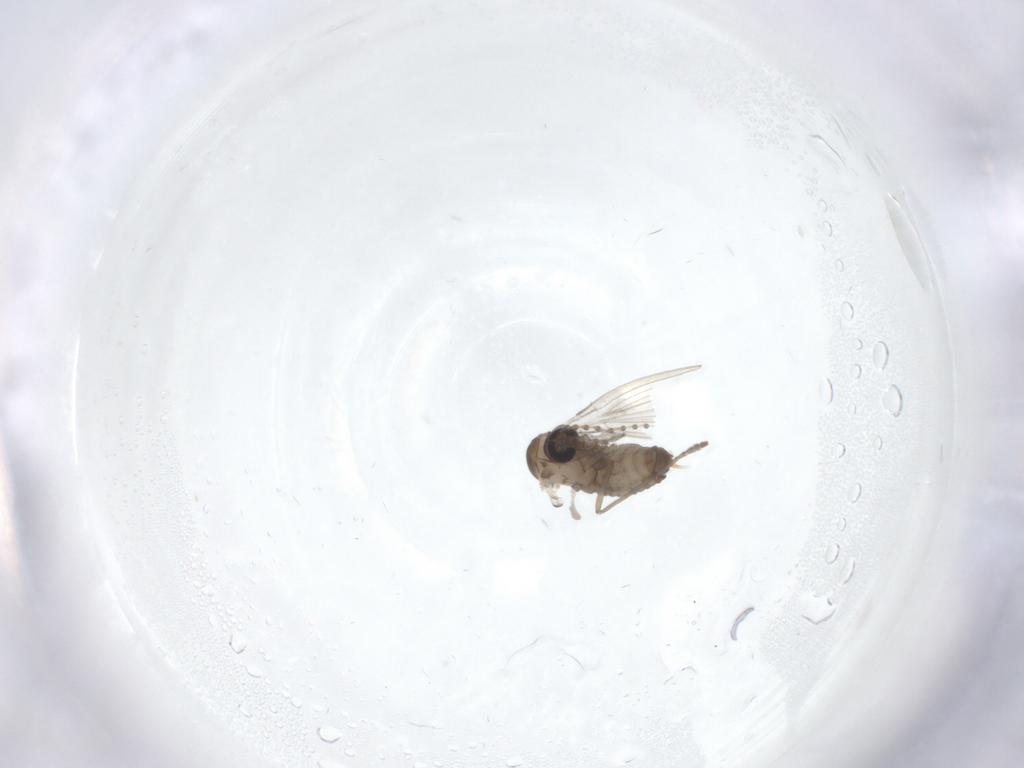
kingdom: Animalia
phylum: Arthropoda
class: Insecta
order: Diptera
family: Psychodidae
